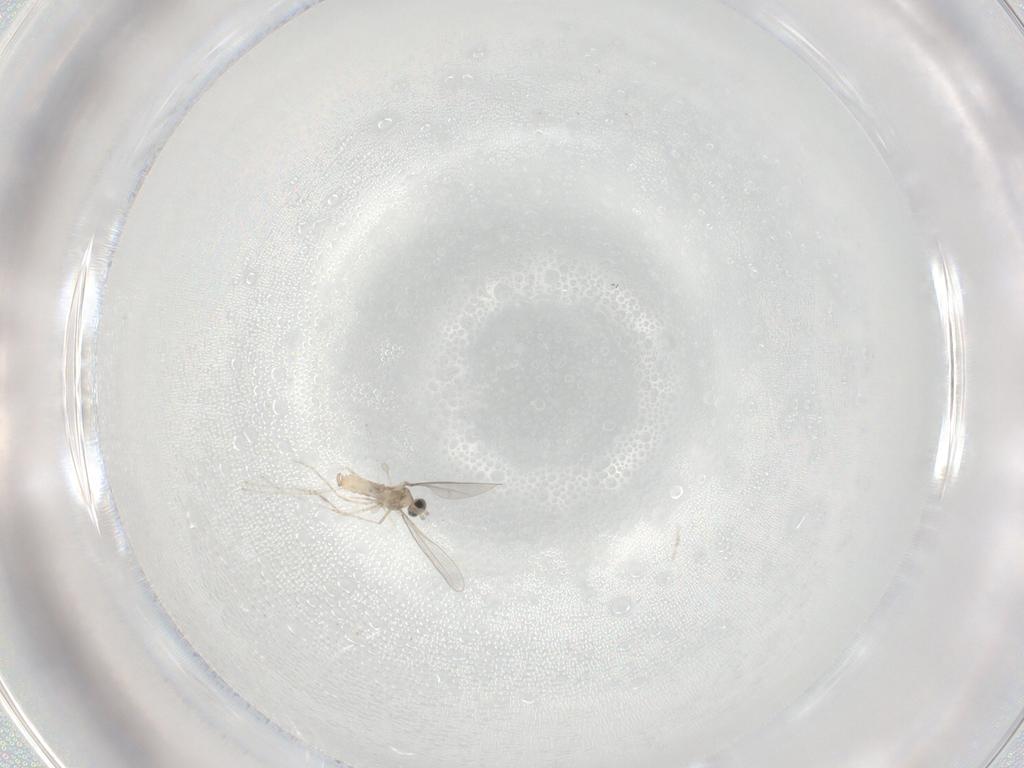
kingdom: Animalia
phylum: Arthropoda
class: Insecta
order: Diptera
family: Cecidomyiidae
